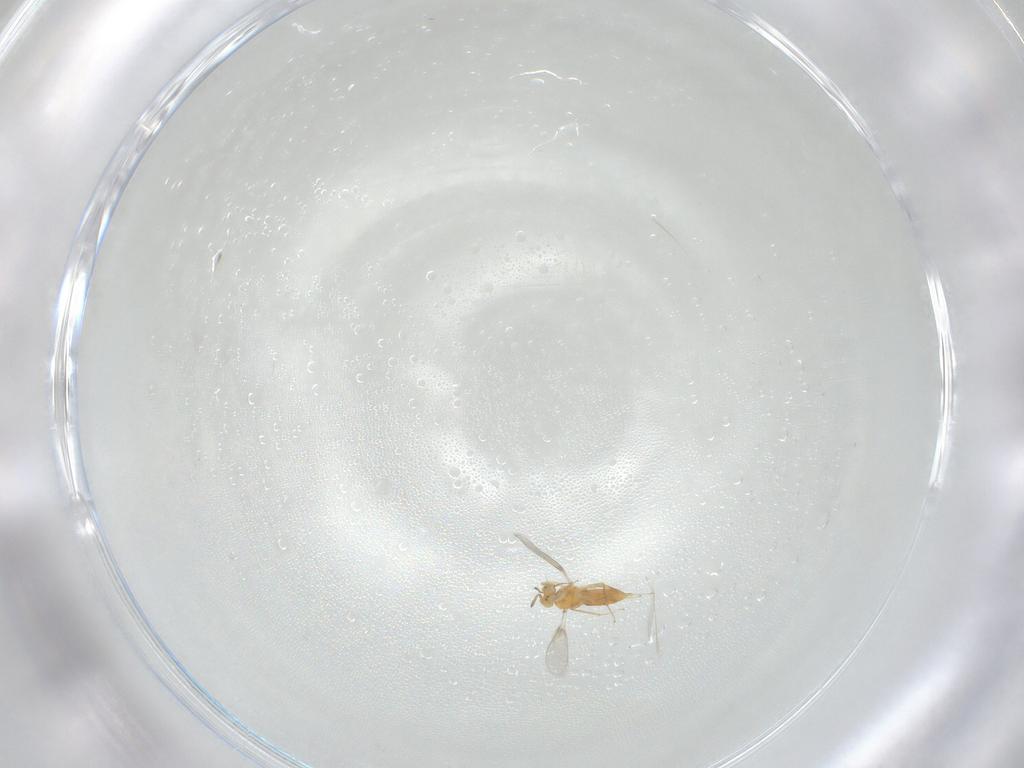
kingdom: Animalia
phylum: Arthropoda
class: Insecta
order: Hymenoptera
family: Aphelinidae
